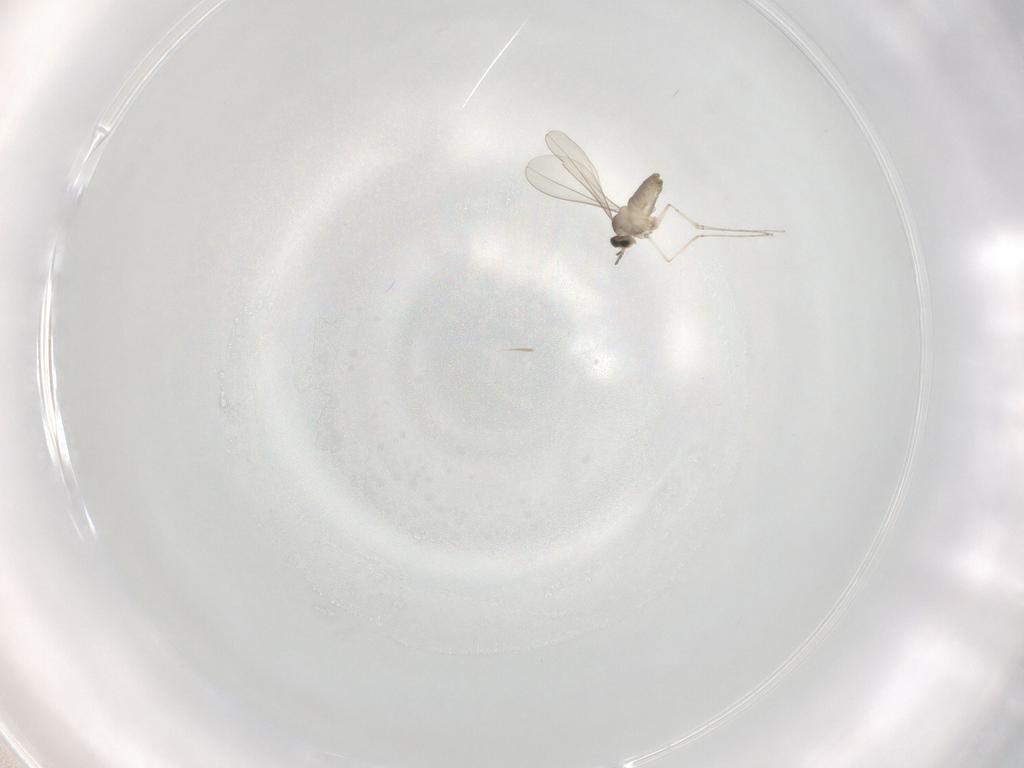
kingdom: Animalia
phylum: Arthropoda
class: Insecta
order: Diptera
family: Cecidomyiidae
